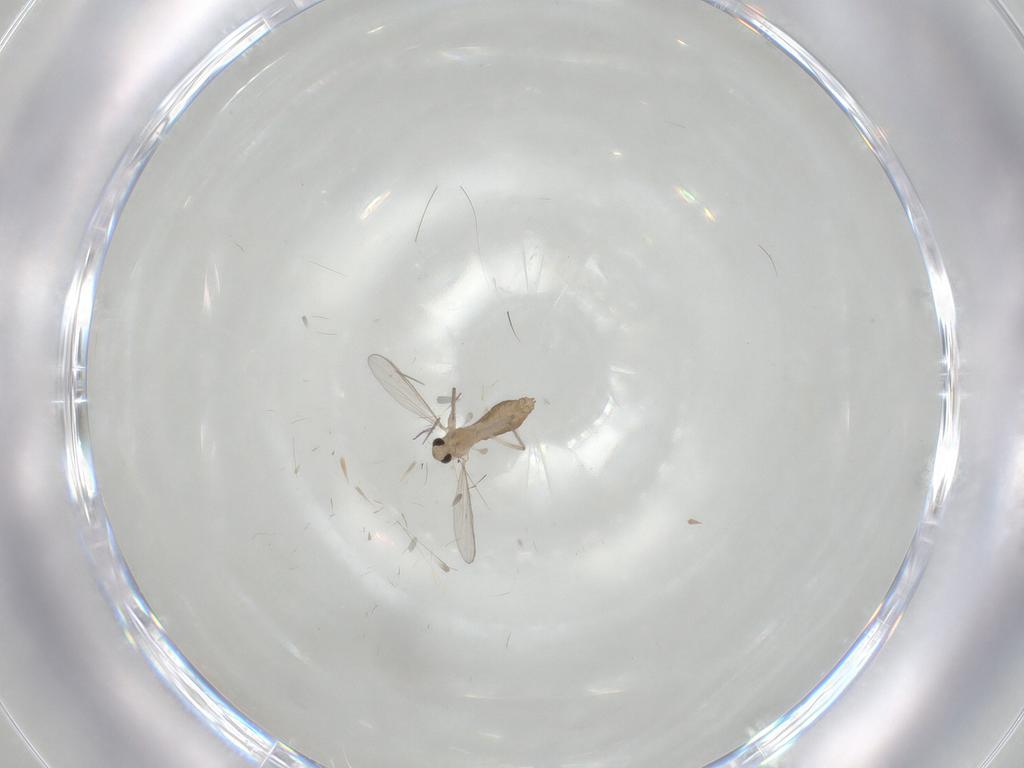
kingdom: Animalia
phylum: Arthropoda
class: Insecta
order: Diptera
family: Chironomidae
